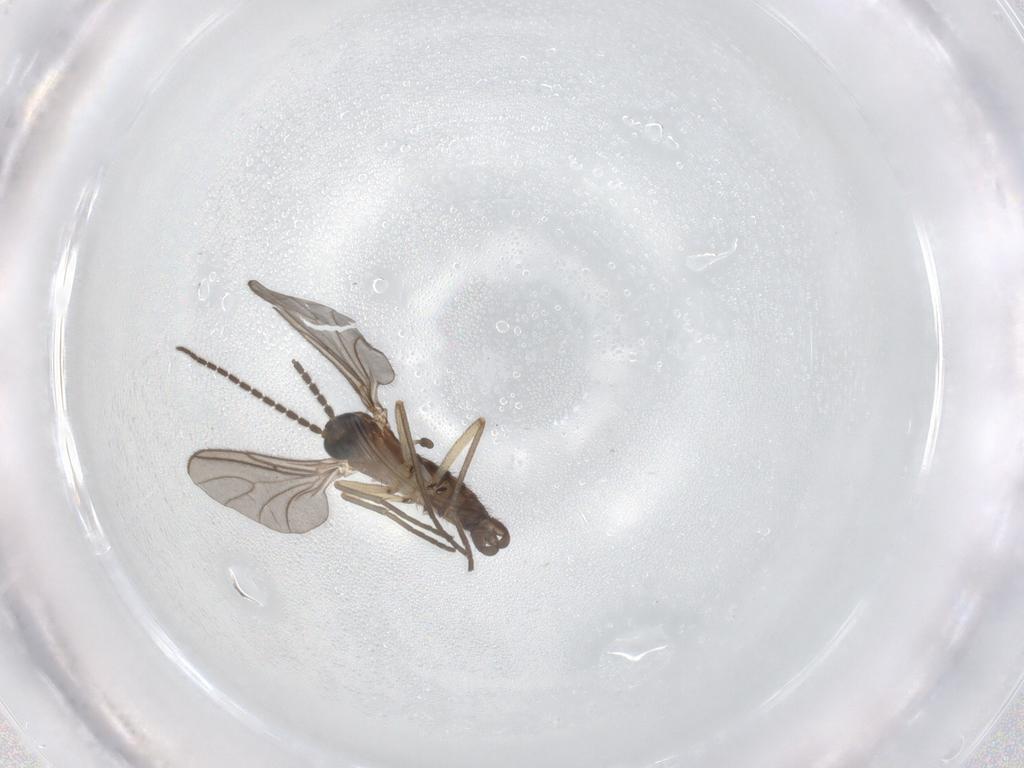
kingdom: Animalia
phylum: Arthropoda
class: Insecta
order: Diptera
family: Sciaridae
